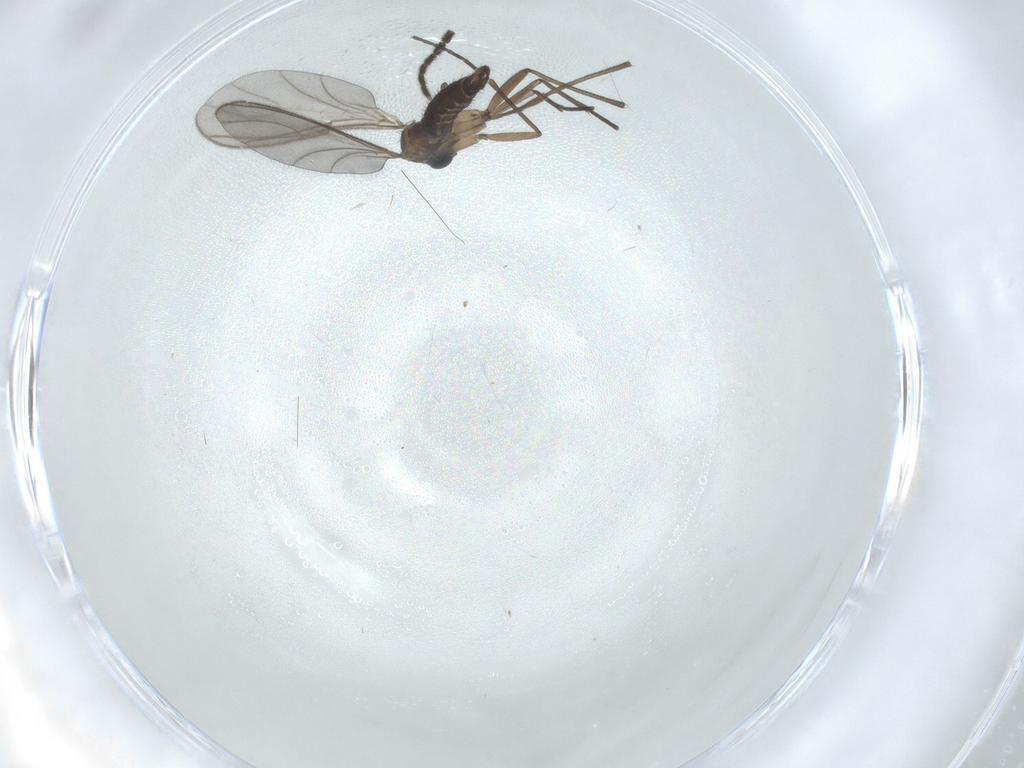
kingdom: Animalia
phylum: Arthropoda
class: Insecta
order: Diptera
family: Sciaridae
